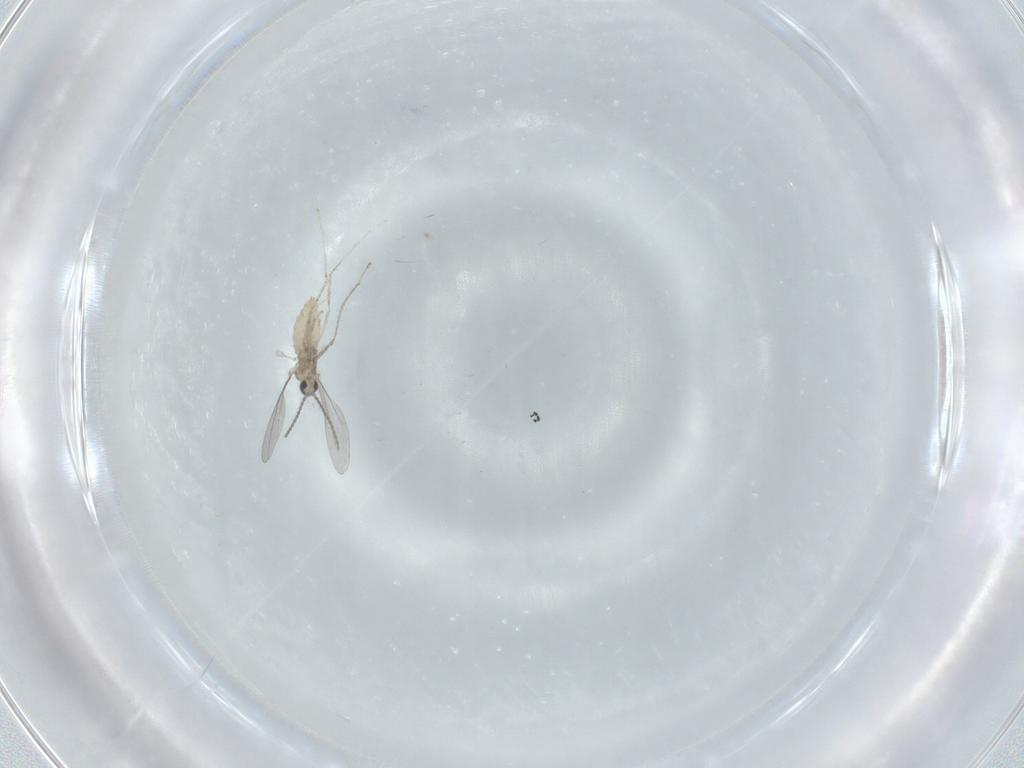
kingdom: Animalia
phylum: Arthropoda
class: Insecta
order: Diptera
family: Cecidomyiidae
